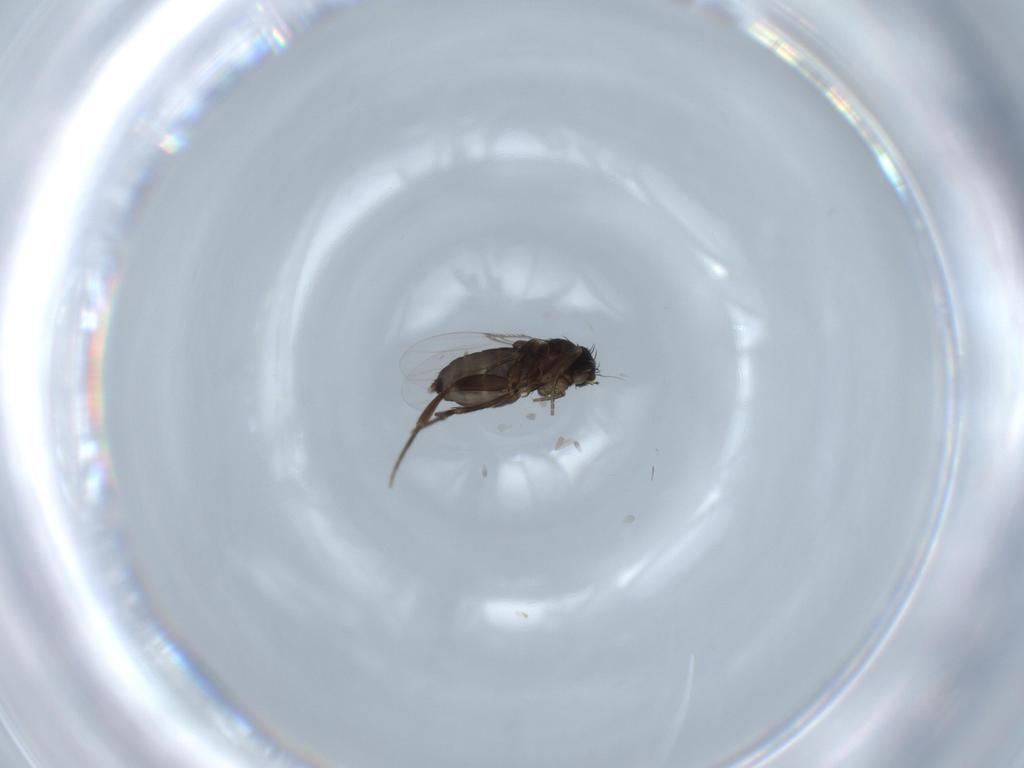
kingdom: Animalia
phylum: Arthropoda
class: Insecta
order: Diptera
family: Phoridae
